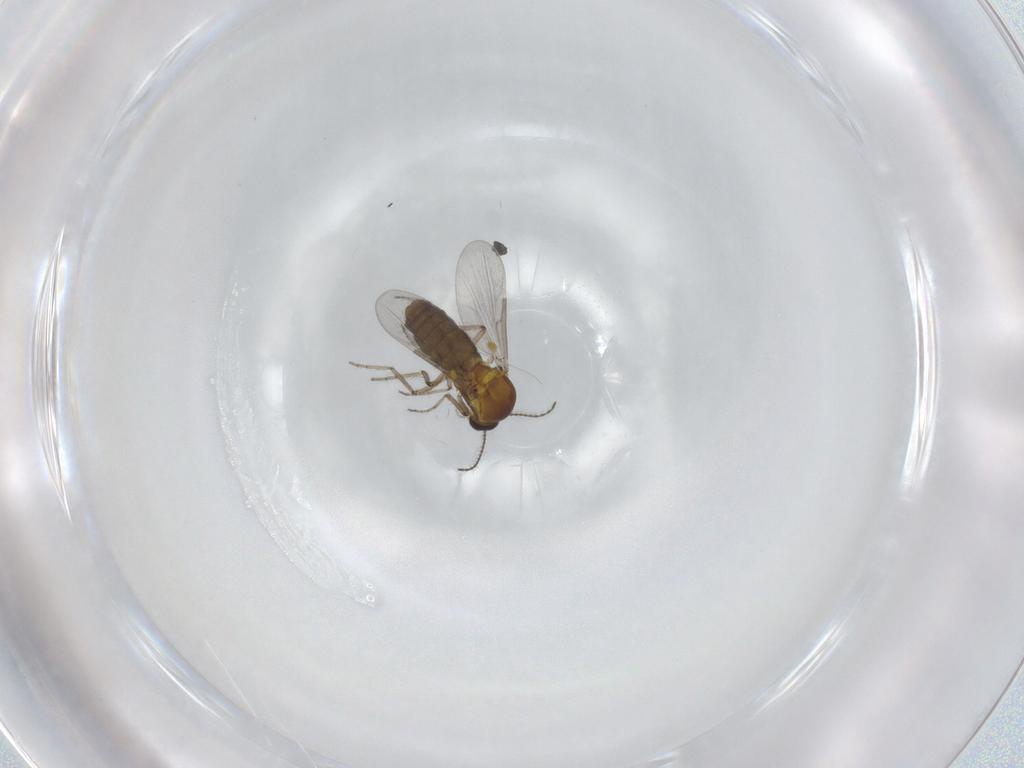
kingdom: Animalia
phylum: Arthropoda
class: Insecta
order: Diptera
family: Ceratopogonidae
